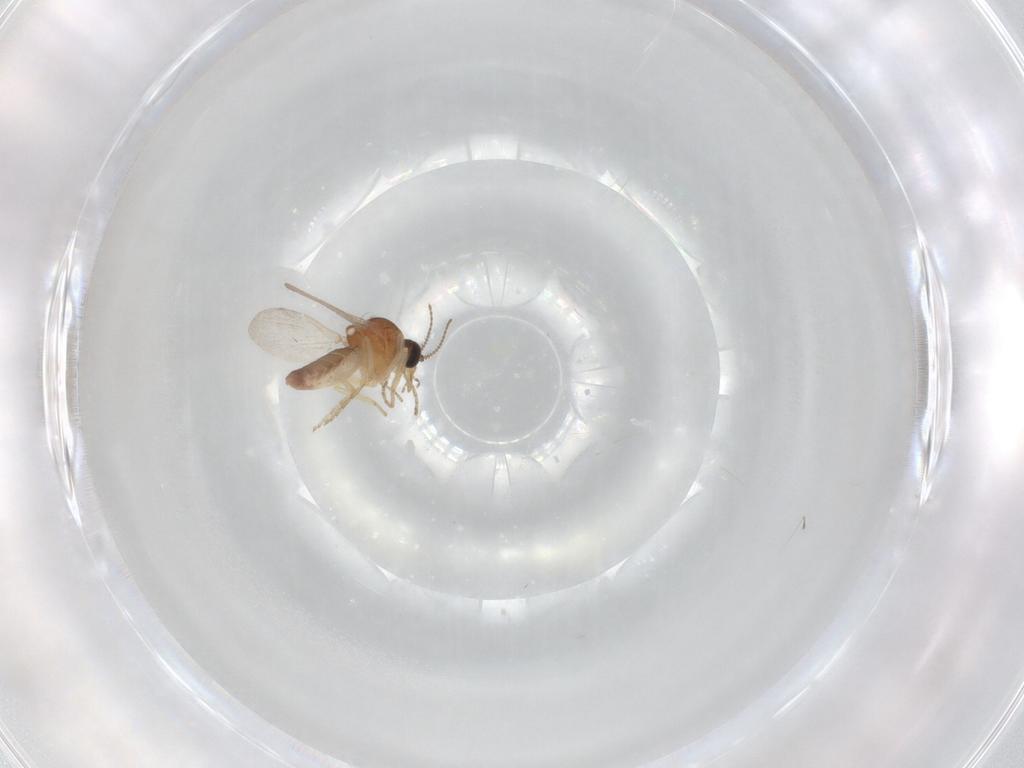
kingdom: Animalia
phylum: Arthropoda
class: Insecta
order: Diptera
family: Ceratopogonidae
